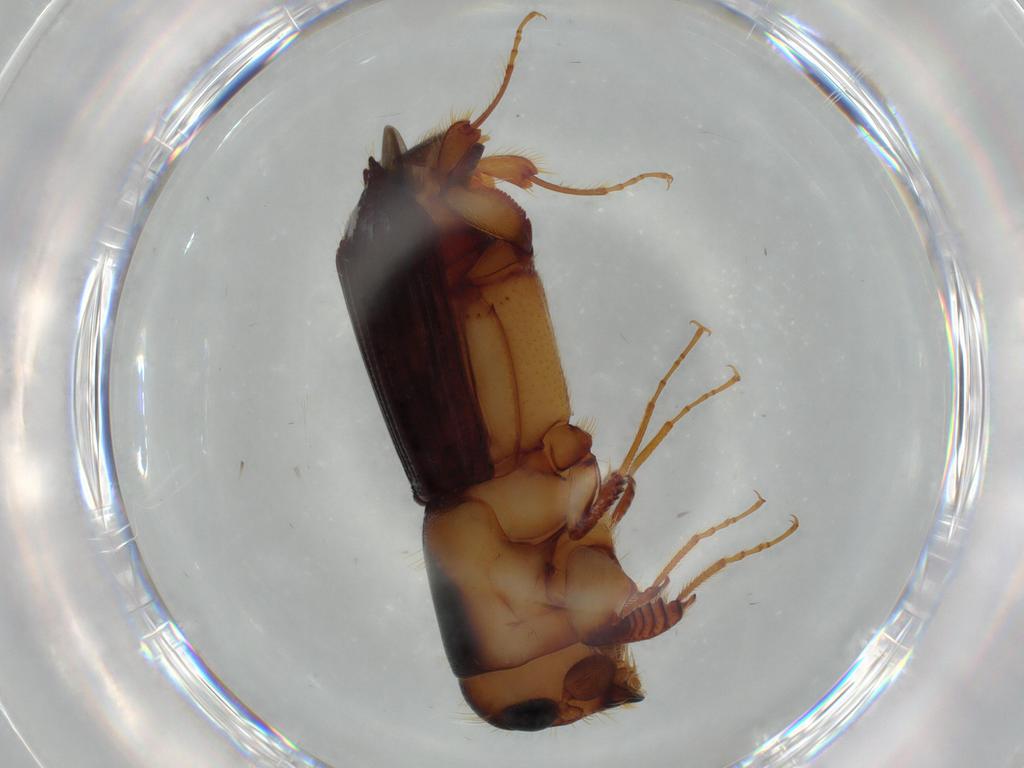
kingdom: Animalia
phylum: Arthropoda
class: Insecta
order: Coleoptera
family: Curculionidae
